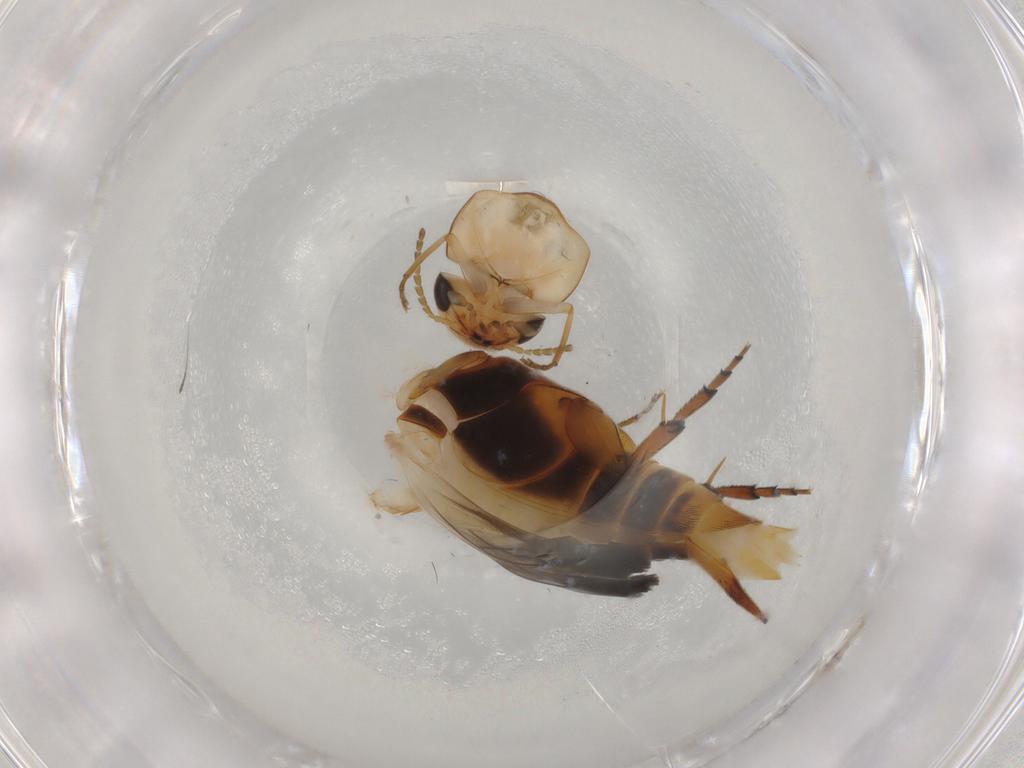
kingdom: Animalia
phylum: Arthropoda
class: Insecta
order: Coleoptera
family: Mordellidae
